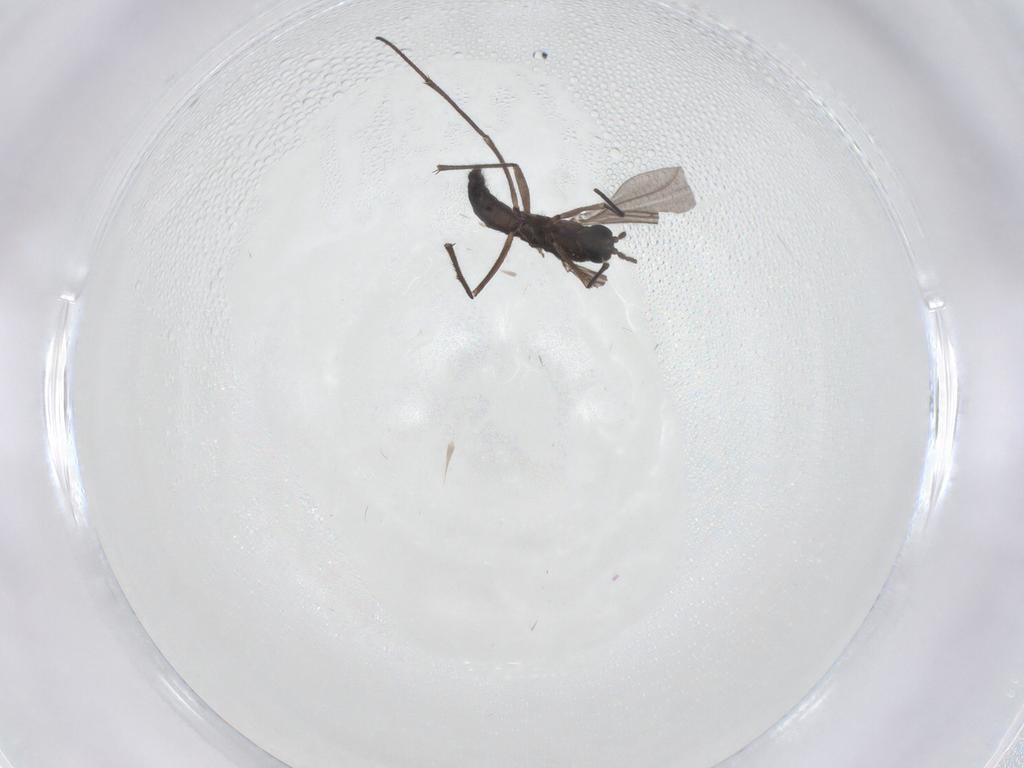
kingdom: Animalia
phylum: Arthropoda
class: Insecta
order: Diptera
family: Sciaridae
